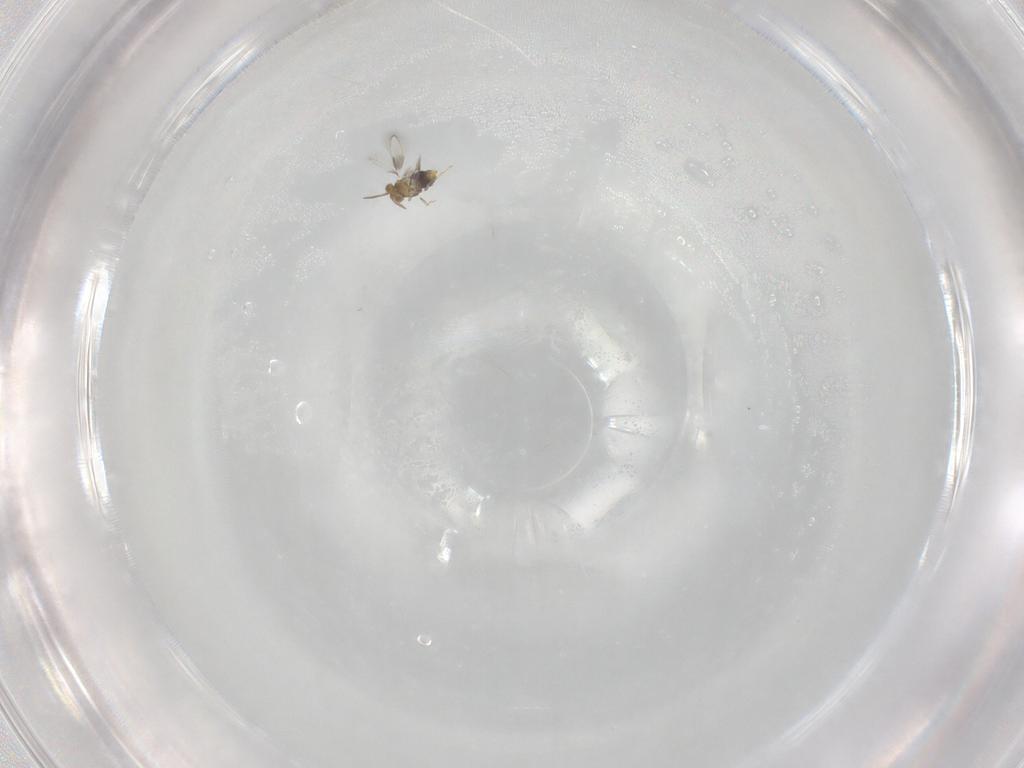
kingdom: Animalia
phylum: Arthropoda
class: Insecta
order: Hymenoptera
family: Aphelinidae
